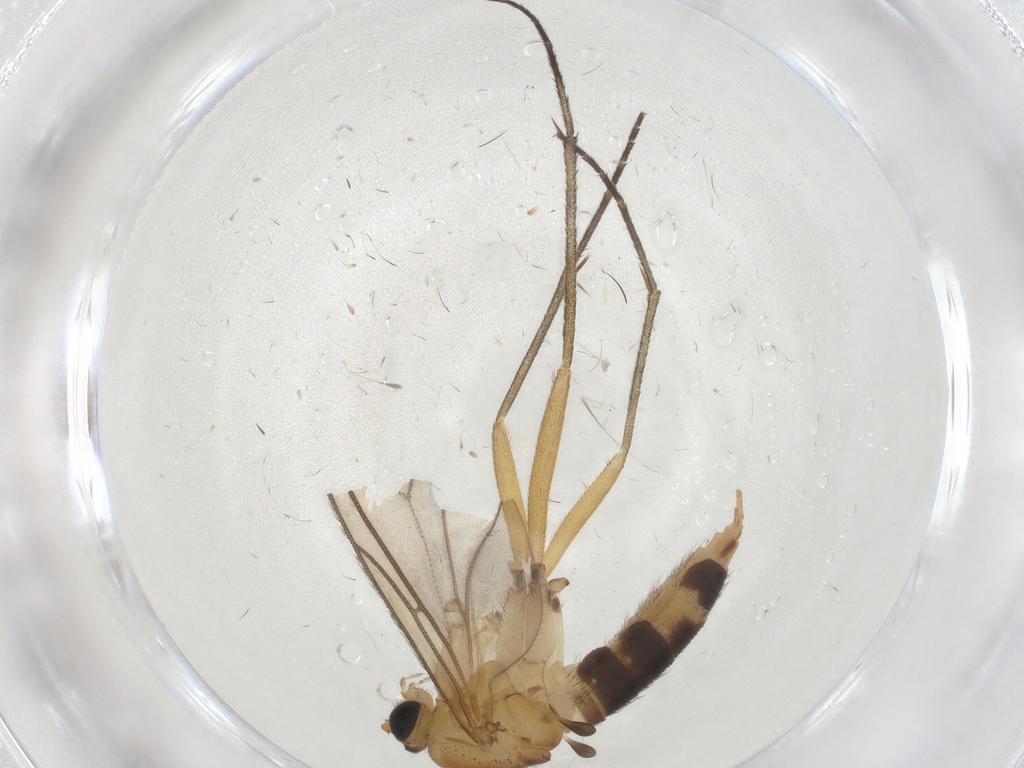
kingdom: Animalia
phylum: Arthropoda
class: Insecta
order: Diptera
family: Sciaridae
